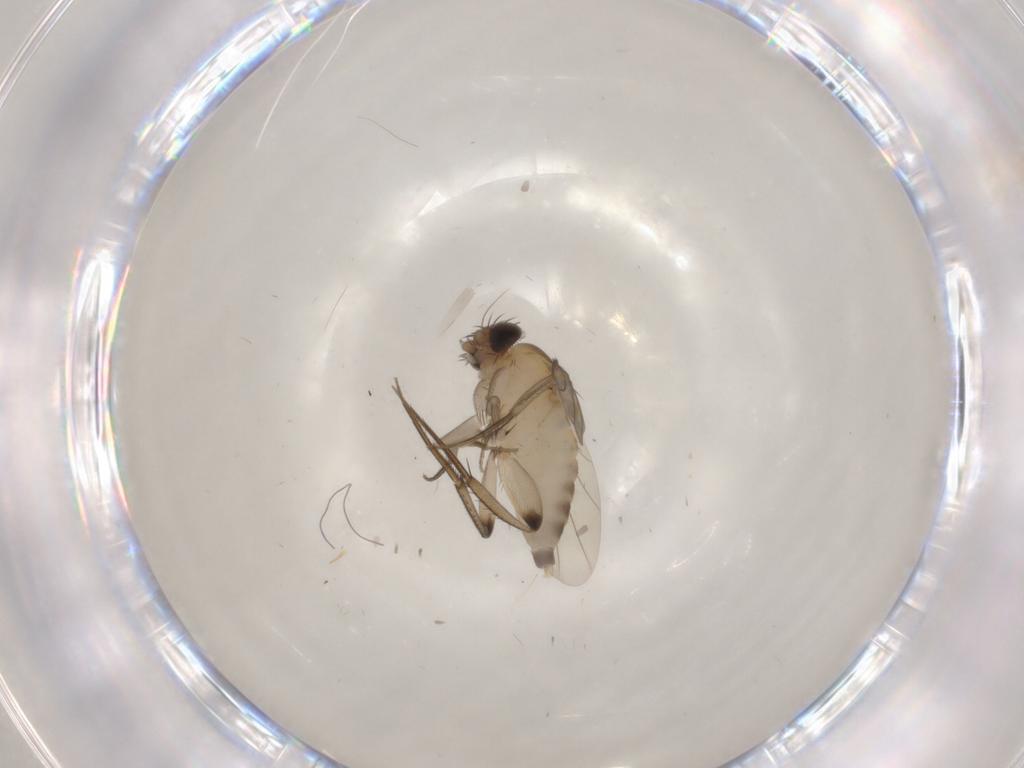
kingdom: Animalia
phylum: Arthropoda
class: Insecta
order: Diptera
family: Phoridae
